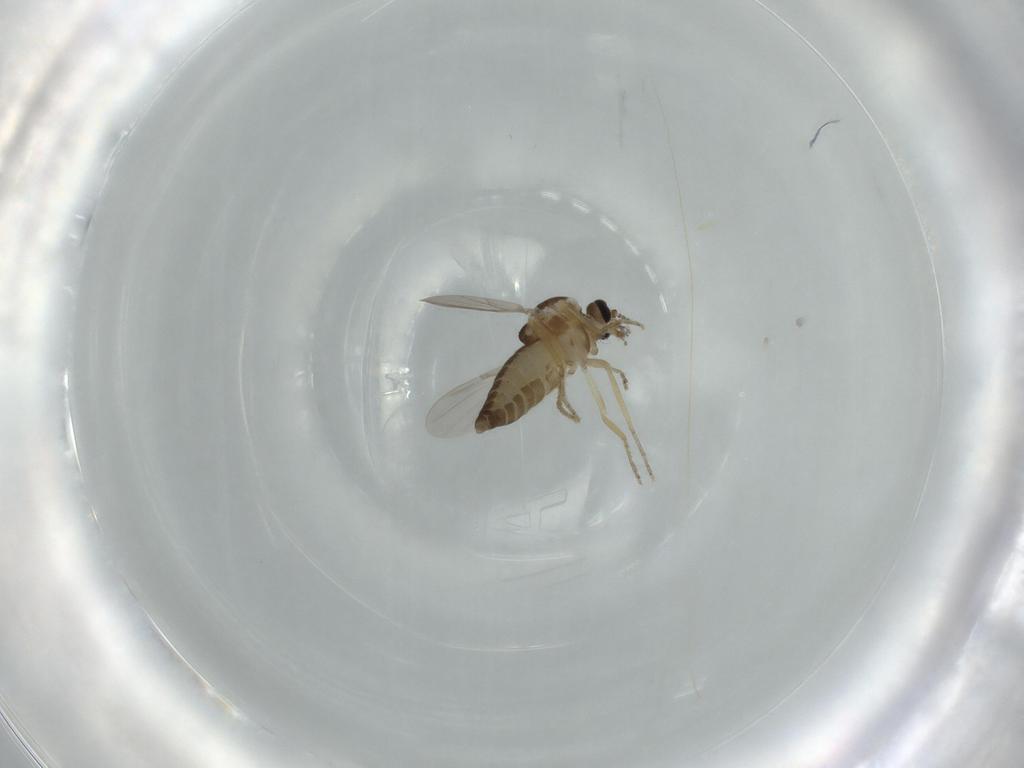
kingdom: Animalia
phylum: Arthropoda
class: Insecta
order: Diptera
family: Ceratopogonidae
